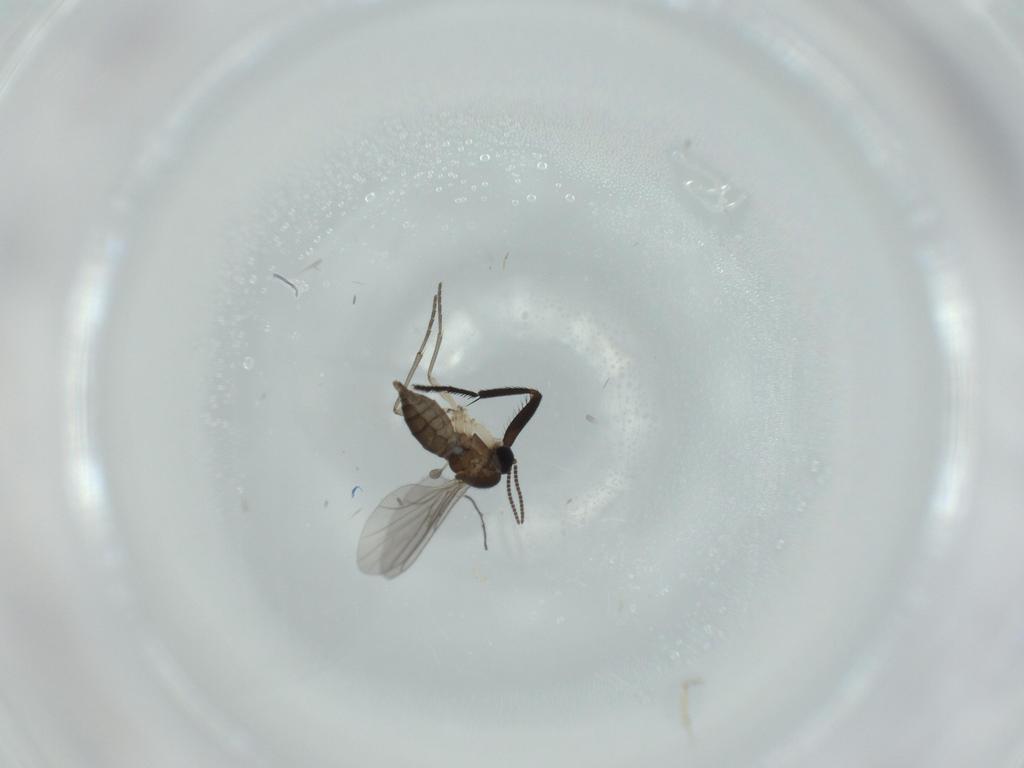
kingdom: Animalia
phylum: Arthropoda
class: Insecta
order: Diptera
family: Sciaridae
